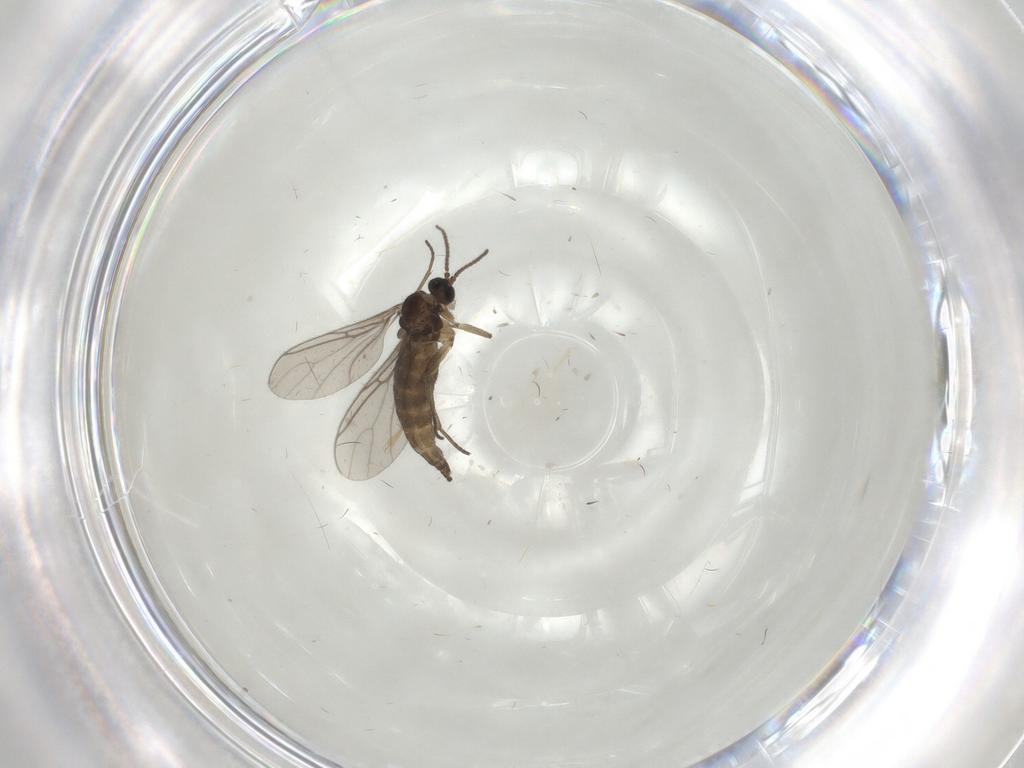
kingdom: Animalia
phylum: Arthropoda
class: Insecta
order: Diptera
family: Cecidomyiidae
